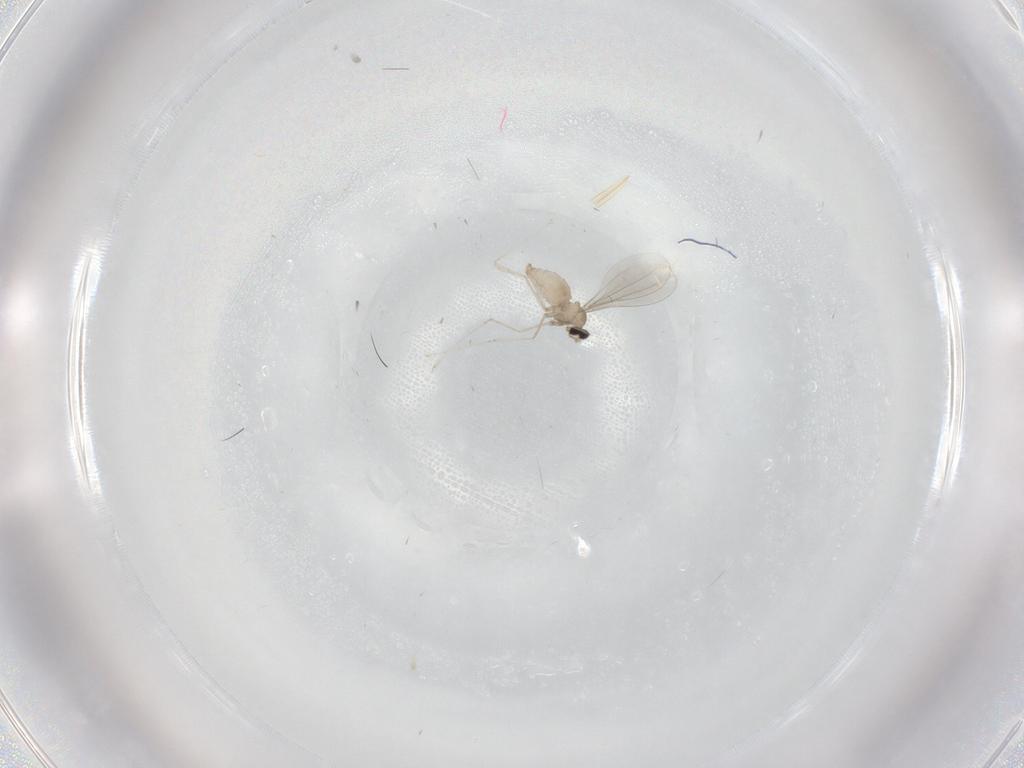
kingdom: Animalia
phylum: Arthropoda
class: Insecta
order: Diptera
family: Cecidomyiidae
